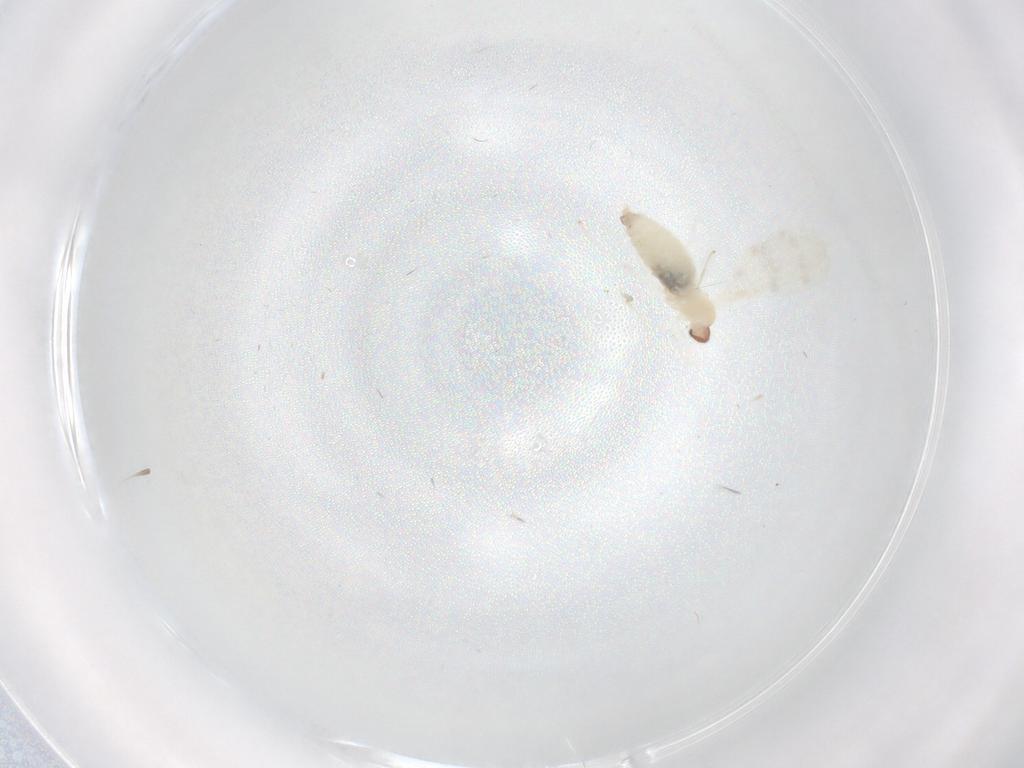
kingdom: Animalia
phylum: Arthropoda
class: Insecta
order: Diptera
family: Cecidomyiidae
